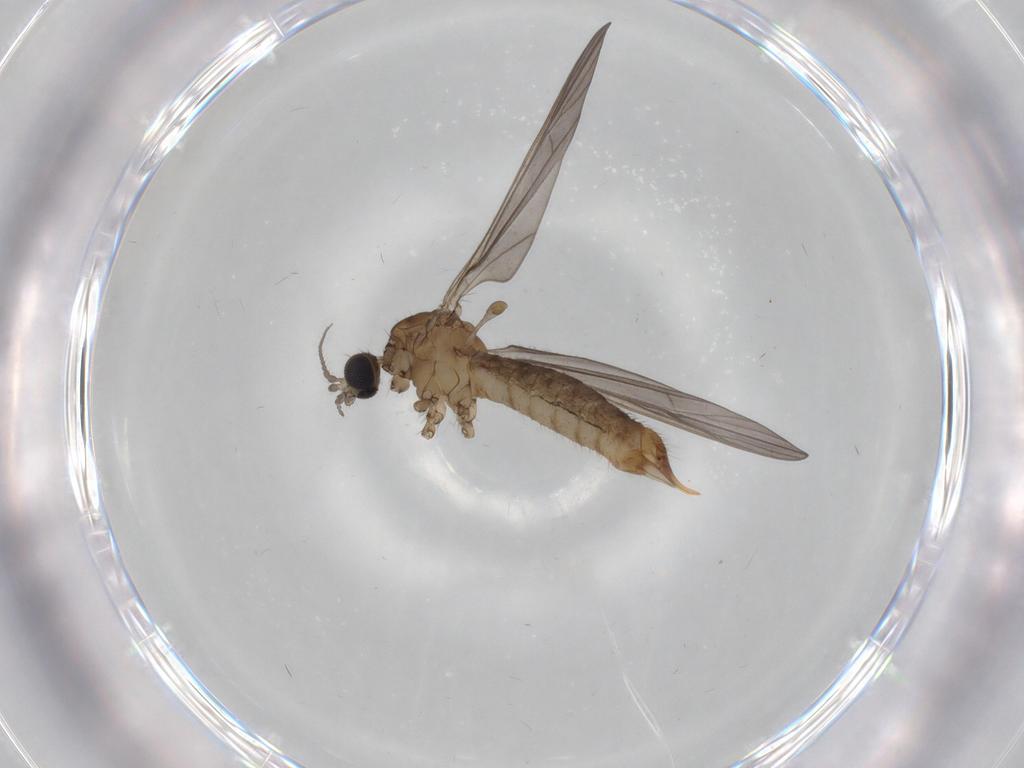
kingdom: Animalia
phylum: Arthropoda
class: Insecta
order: Diptera
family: Limoniidae
